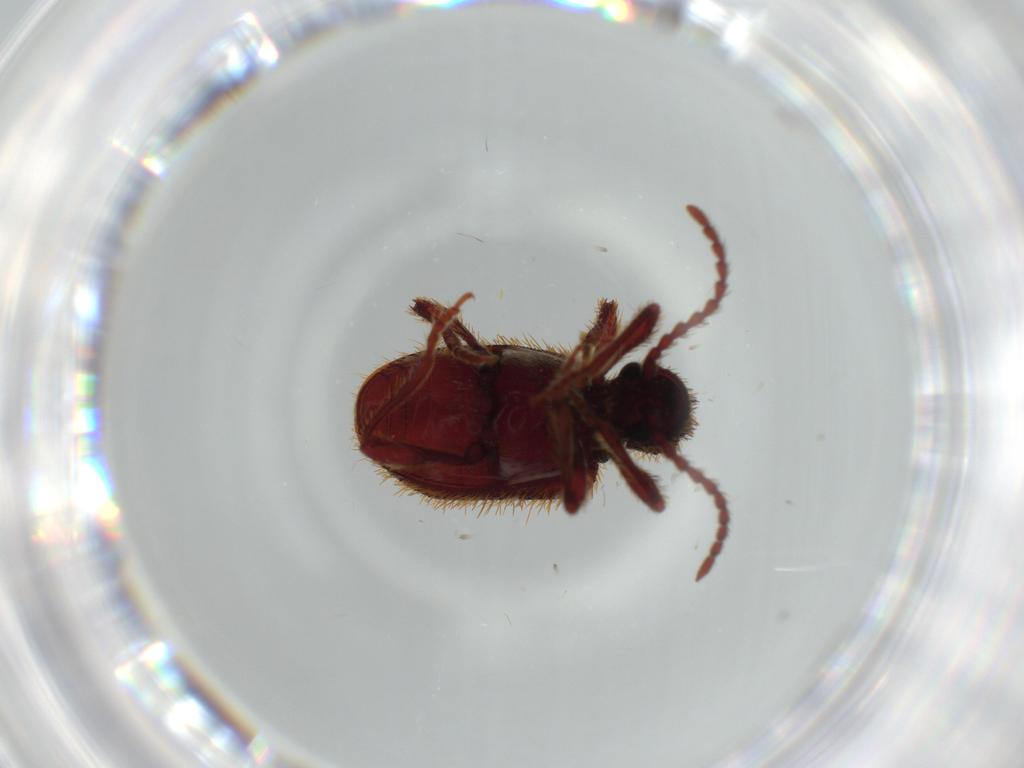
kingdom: Animalia
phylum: Arthropoda
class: Insecta
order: Coleoptera
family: Ptinidae
